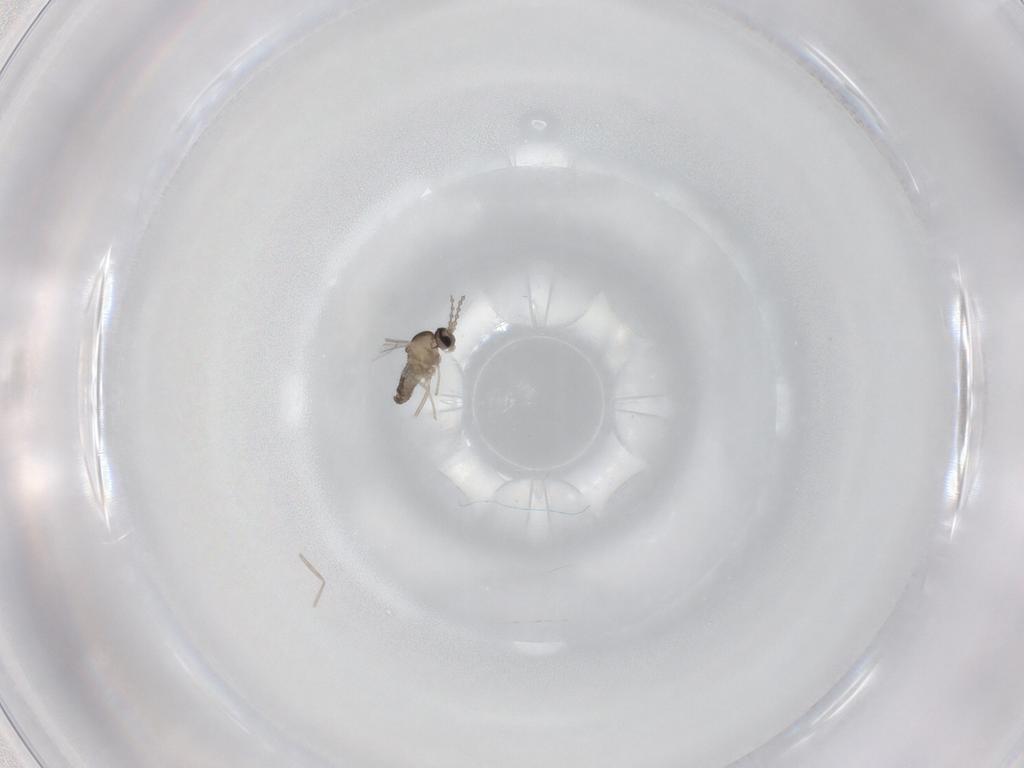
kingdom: Animalia
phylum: Arthropoda
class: Insecta
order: Diptera
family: Cecidomyiidae
